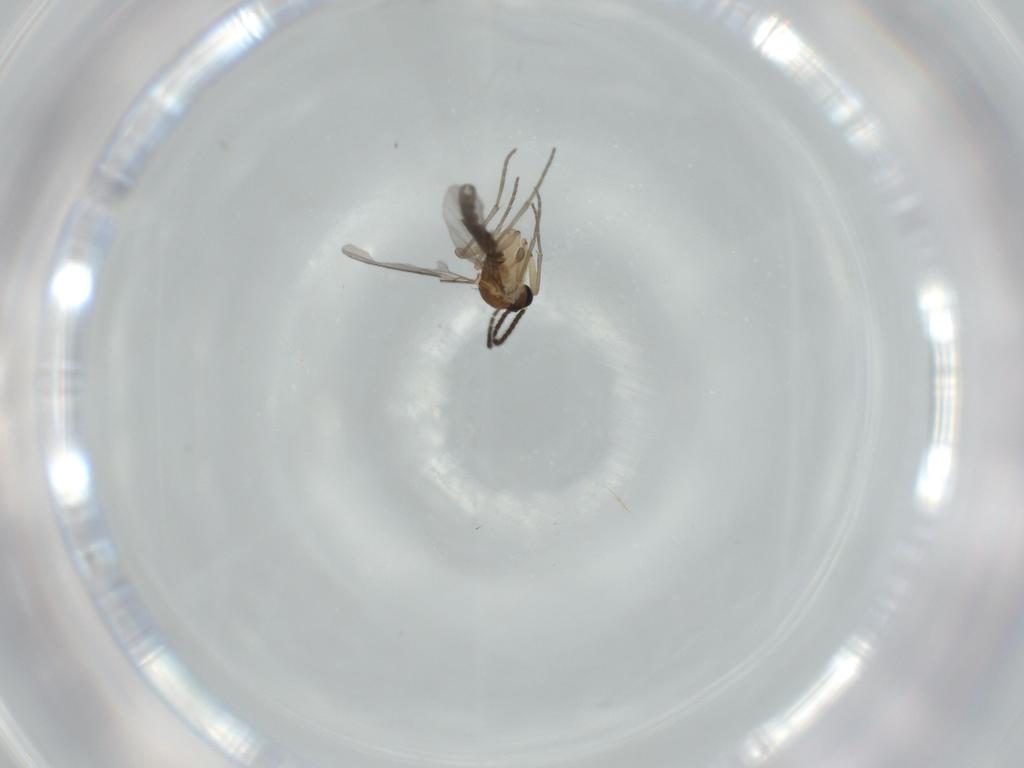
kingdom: Animalia
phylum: Arthropoda
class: Insecta
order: Diptera
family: Sciaridae
